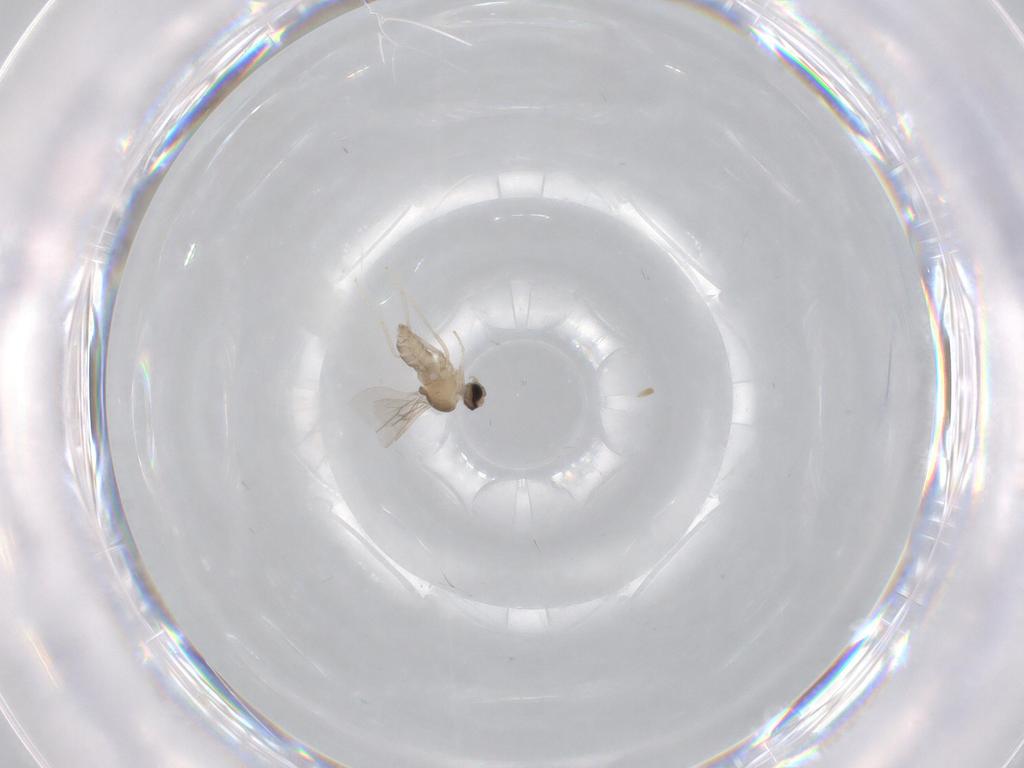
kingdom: Animalia
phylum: Arthropoda
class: Insecta
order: Diptera
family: Cecidomyiidae
